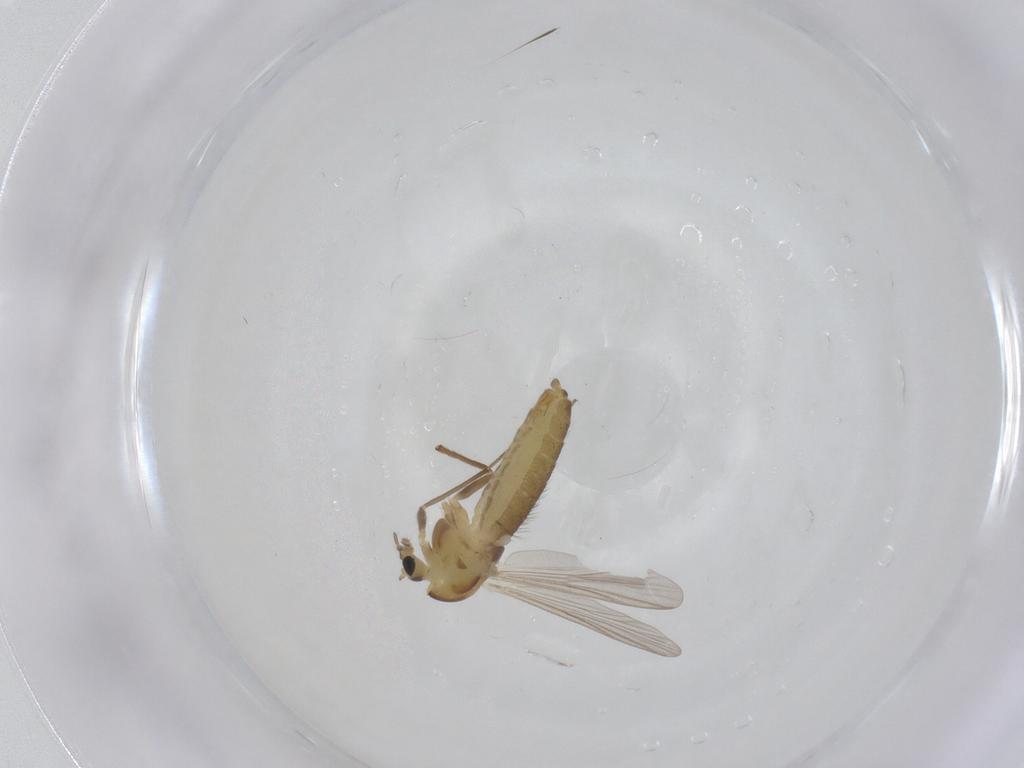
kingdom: Animalia
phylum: Arthropoda
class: Insecta
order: Diptera
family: Chironomidae
